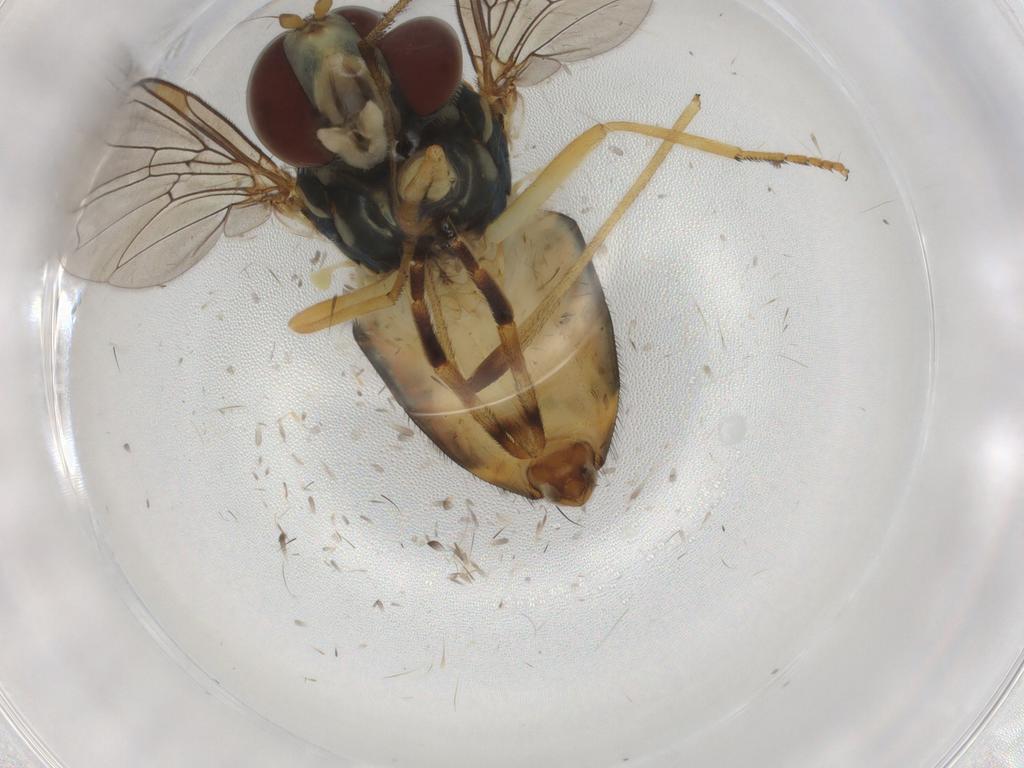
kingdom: Animalia
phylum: Arthropoda
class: Insecta
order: Diptera
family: Syrphidae
